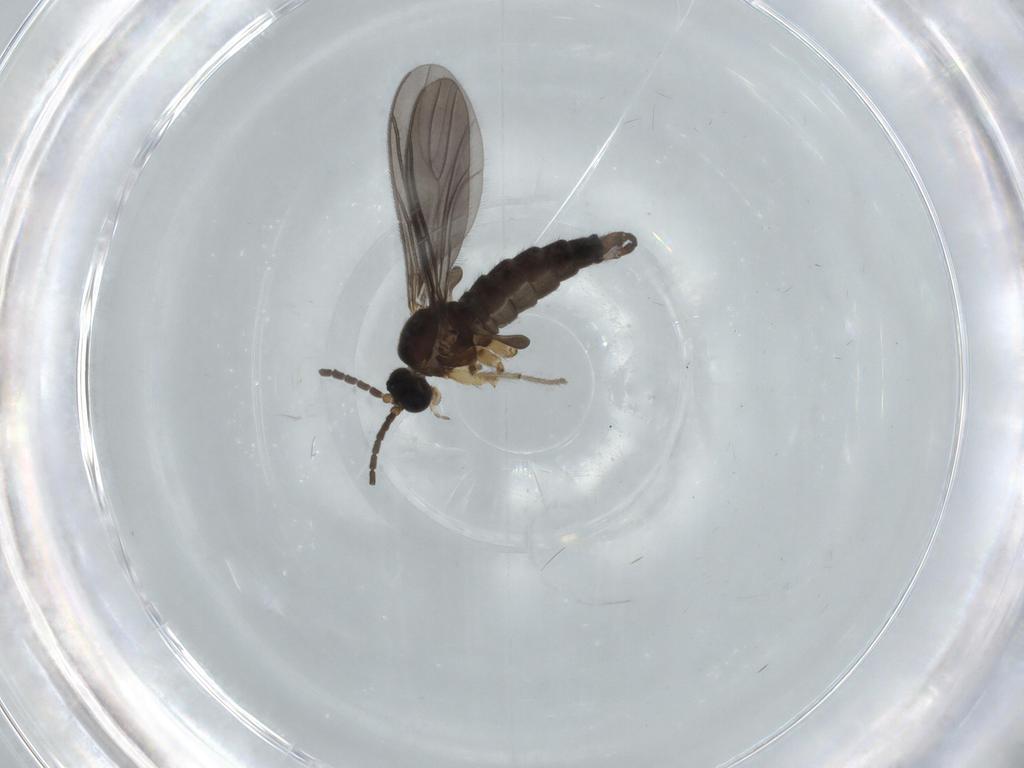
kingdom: Animalia
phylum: Arthropoda
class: Insecta
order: Diptera
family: Sciaridae
